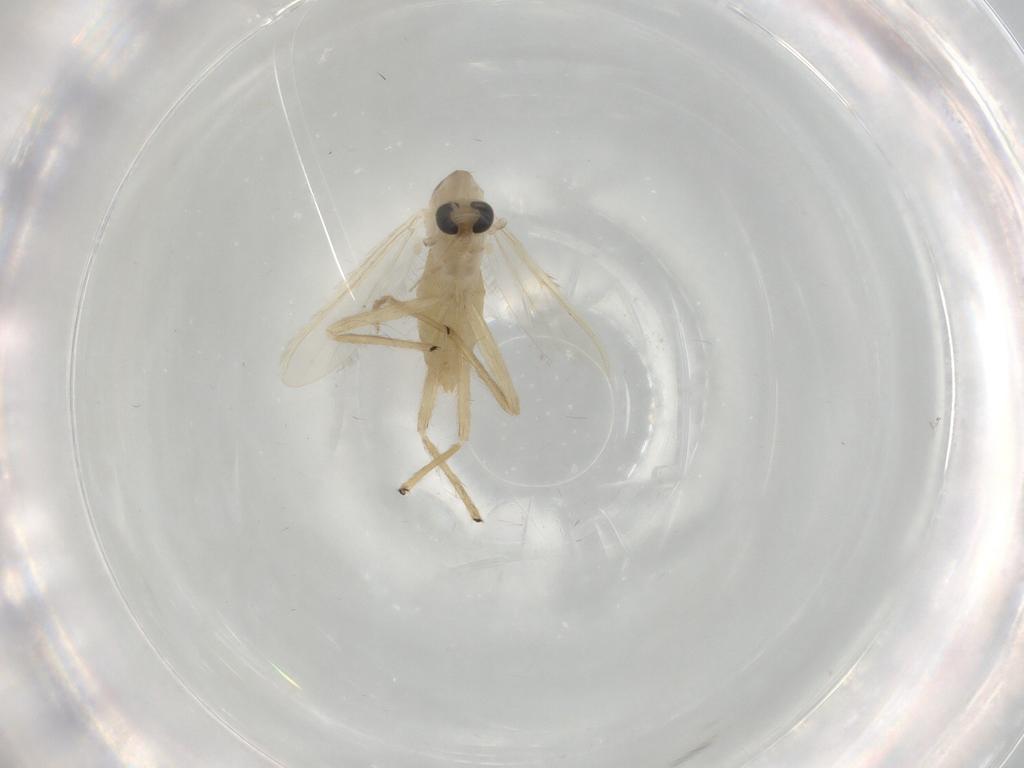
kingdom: Animalia
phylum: Arthropoda
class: Insecta
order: Diptera
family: Chironomidae
